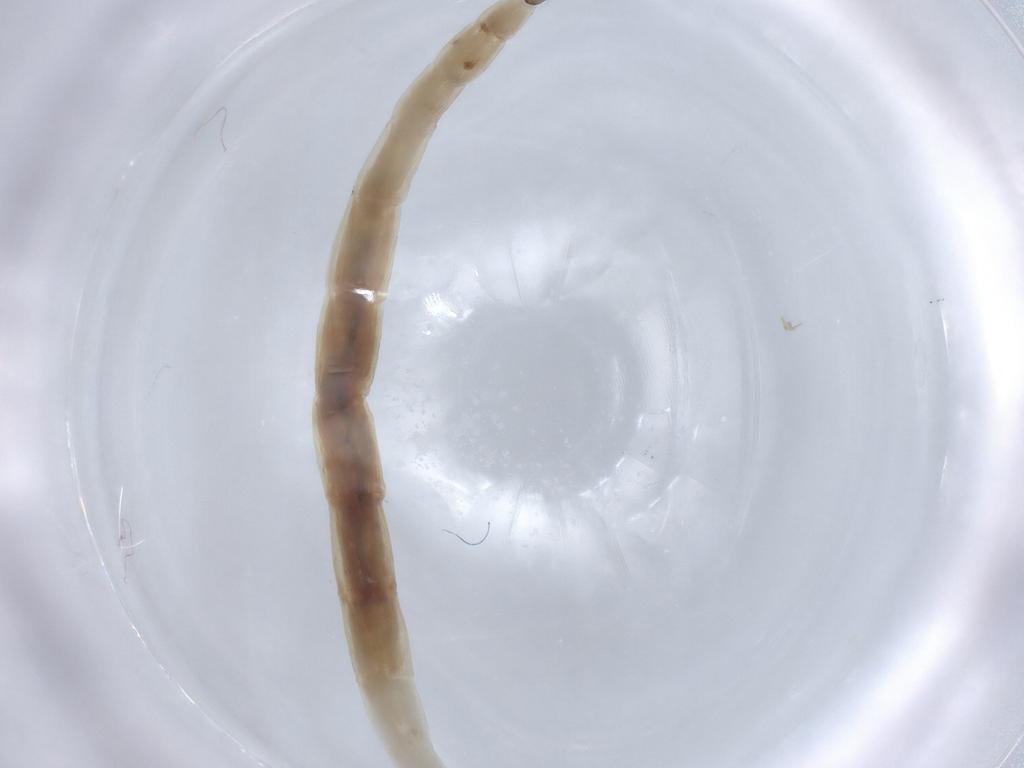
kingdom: Animalia
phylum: Arthropoda
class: Insecta
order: Diptera
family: Ceratopogonidae
